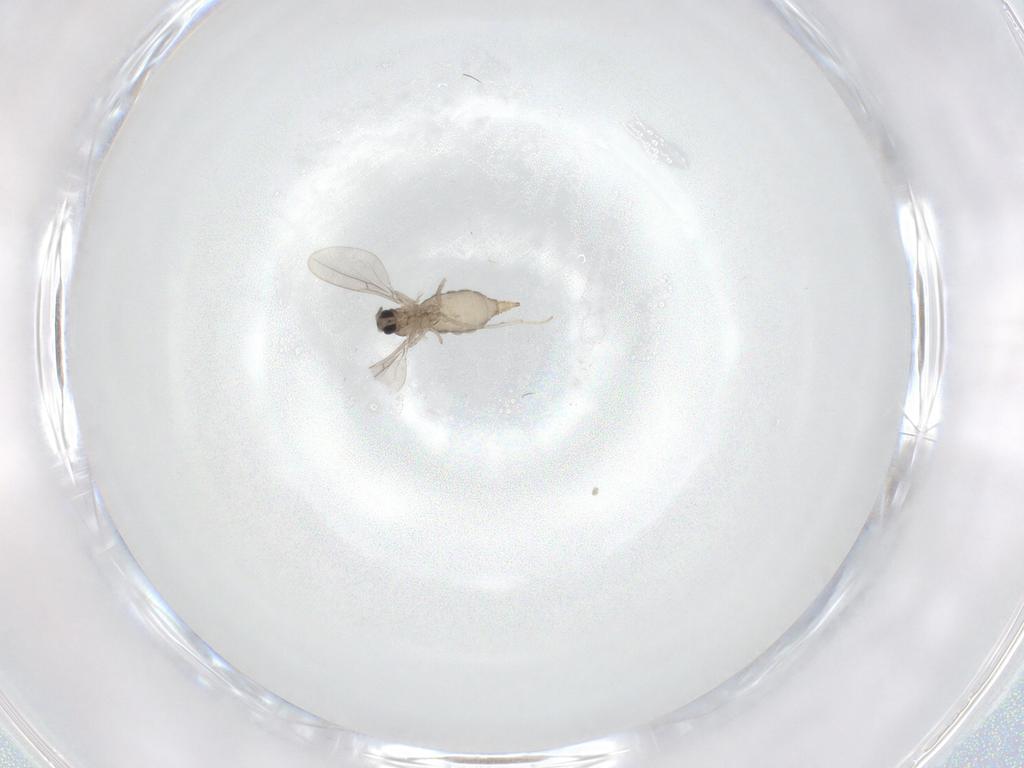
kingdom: Animalia
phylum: Arthropoda
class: Insecta
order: Diptera
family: Cecidomyiidae
